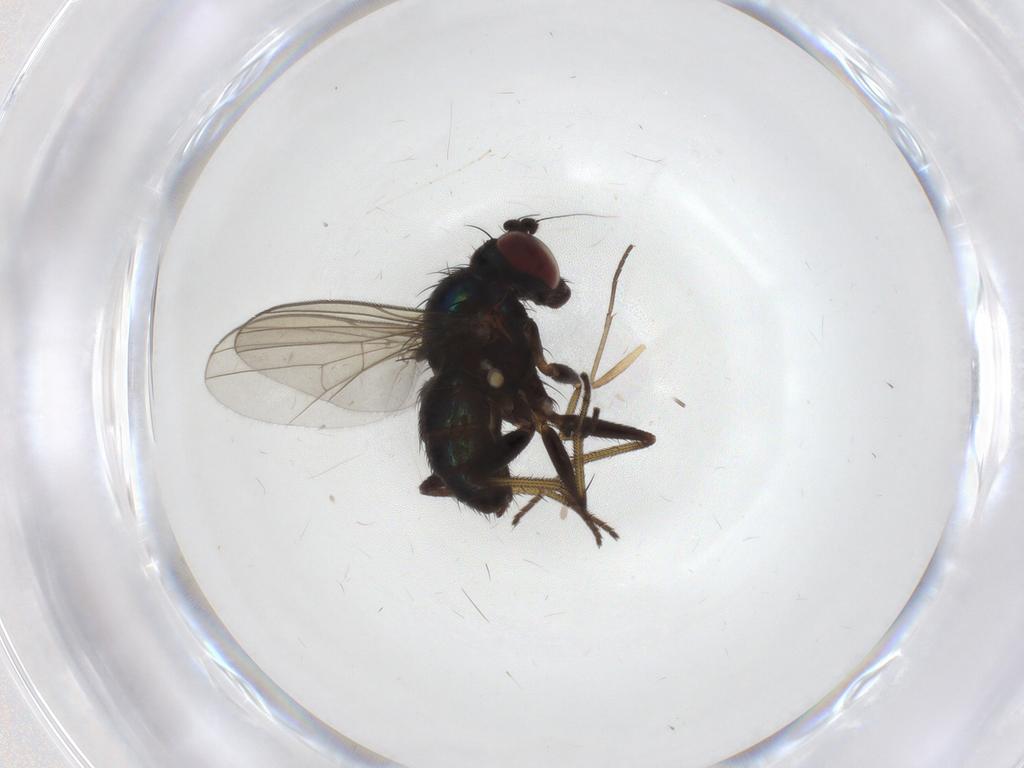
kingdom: Animalia
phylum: Arthropoda
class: Insecta
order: Diptera
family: Dolichopodidae
